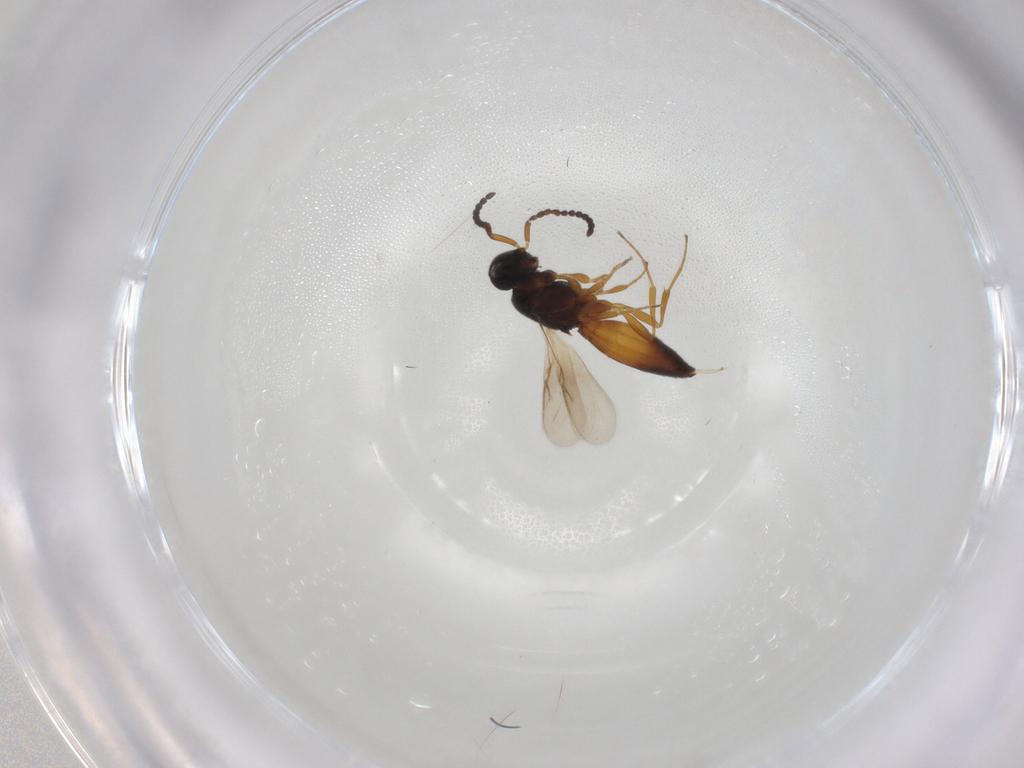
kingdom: Animalia
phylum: Arthropoda
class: Insecta
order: Hymenoptera
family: Scelionidae
